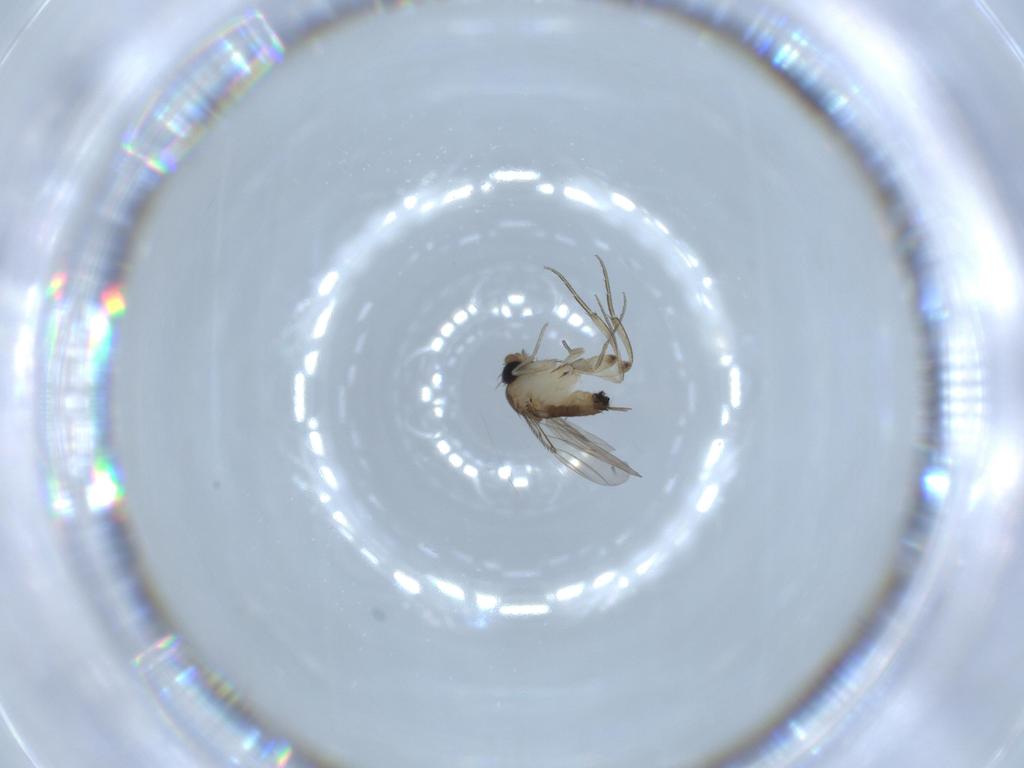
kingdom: Animalia
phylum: Arthropoda
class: Insecta
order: Diptera
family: Phoridae
